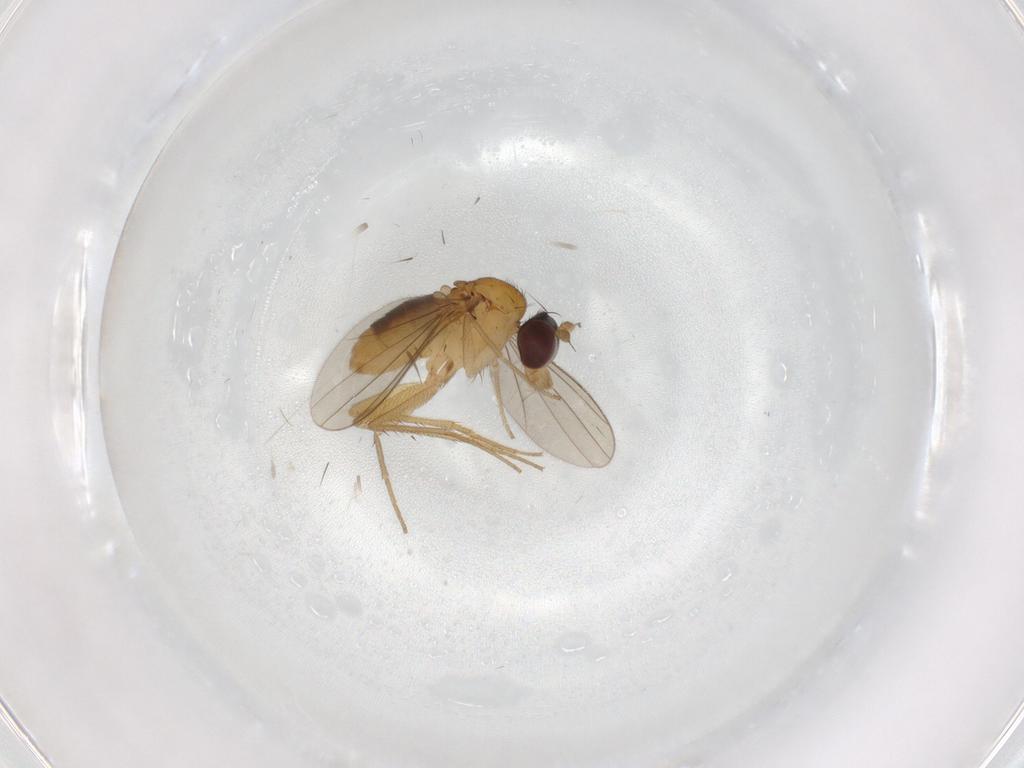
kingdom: Animalia
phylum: Arthropoda
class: Insecta
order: Diptera
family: Dolichopodidae
